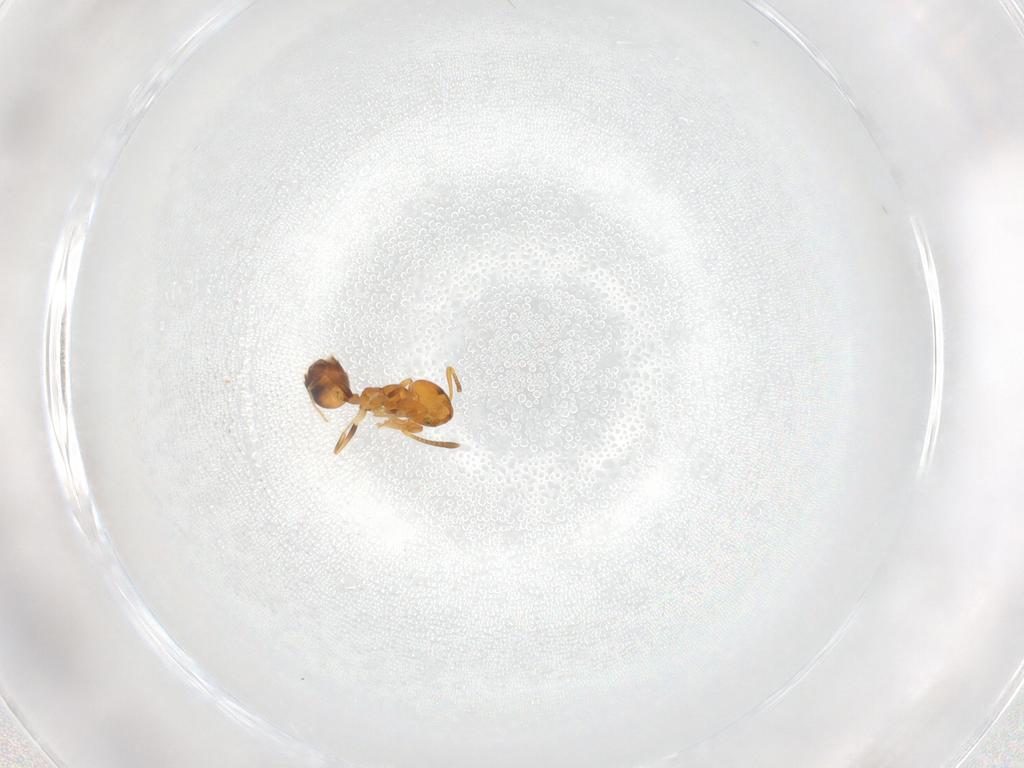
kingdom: Animalia
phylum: Arthropoda
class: Insecta
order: Hymenoptera
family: Formicidae
